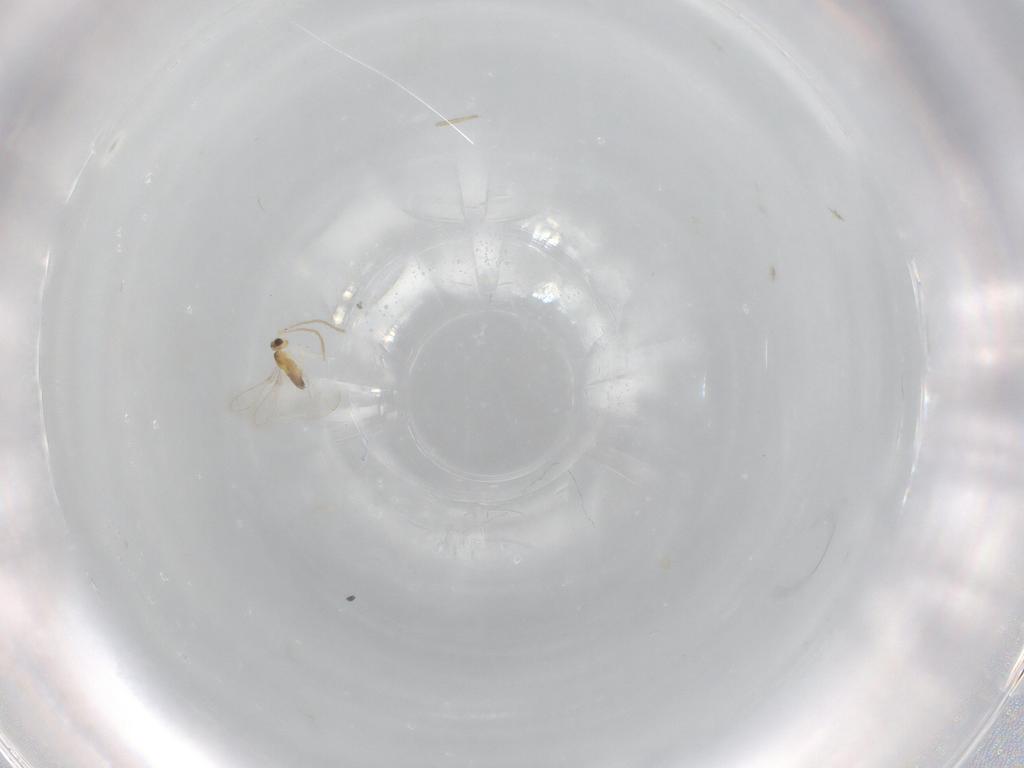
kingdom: Animalia
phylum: Arthropoda
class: Insecta
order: Hymenoptera
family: Mymaridae
